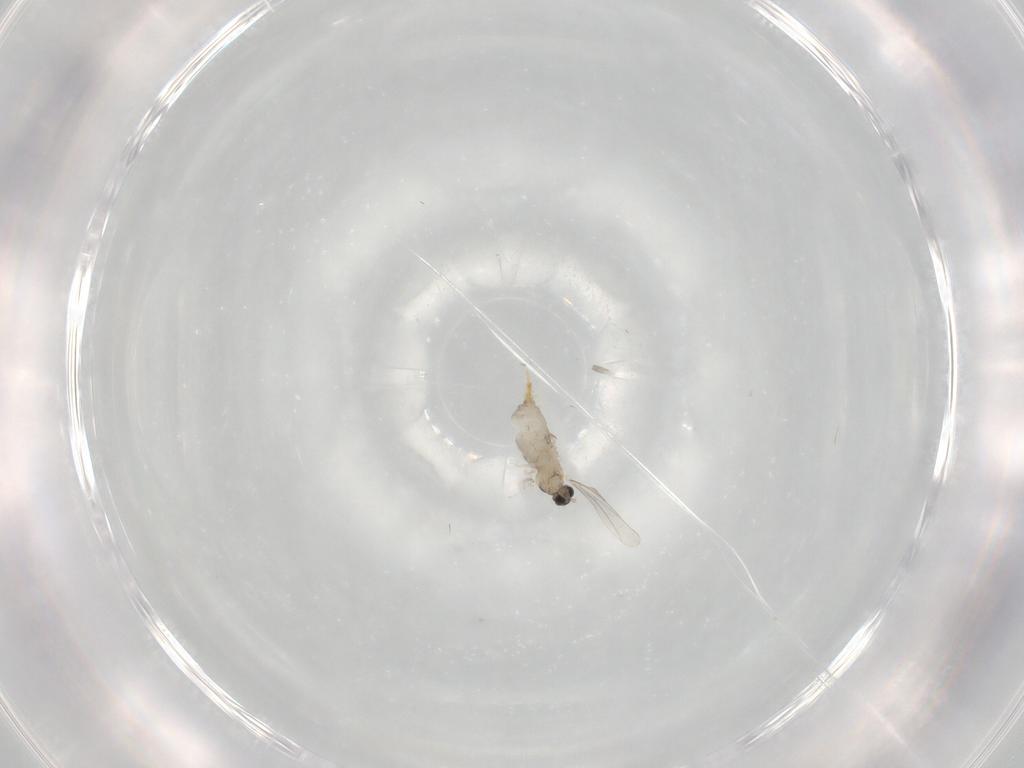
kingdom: Animalia
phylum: Arthropoda
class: Insecta
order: Diptera
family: Cecidomyiidae
